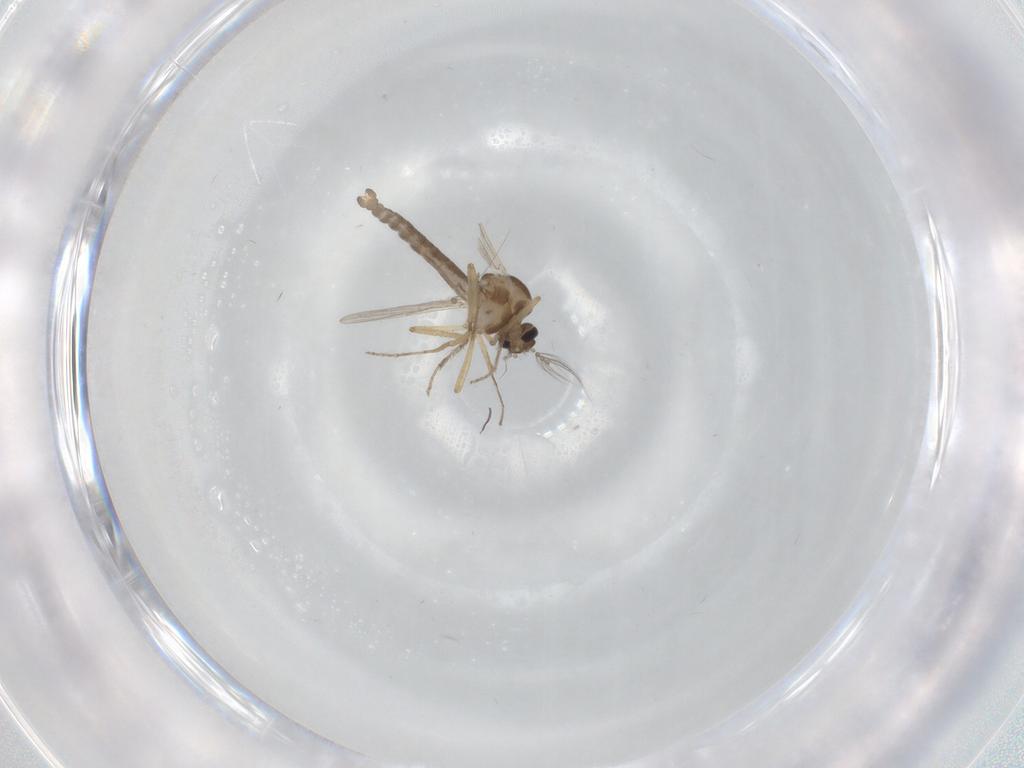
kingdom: Animalia
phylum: Arthropoda
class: Insecta
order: Diptera
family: Ceratopogonidae
